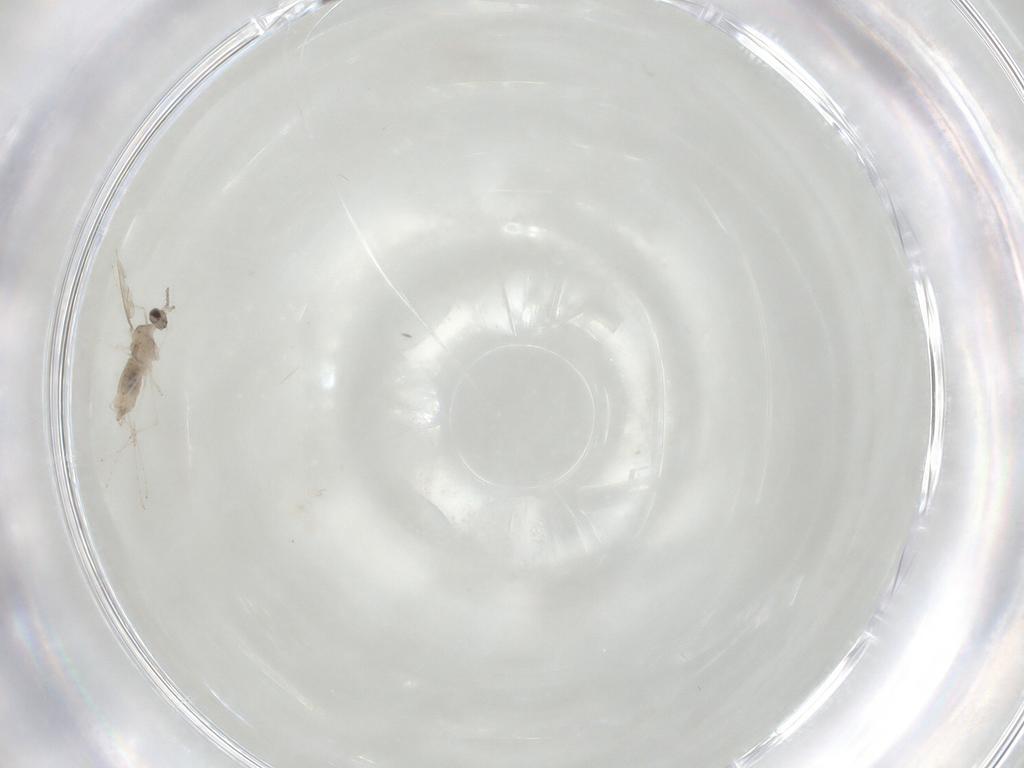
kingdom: Animalia
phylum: Arthropoda
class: Insecta
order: Diptera
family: Cecidomyiidae
